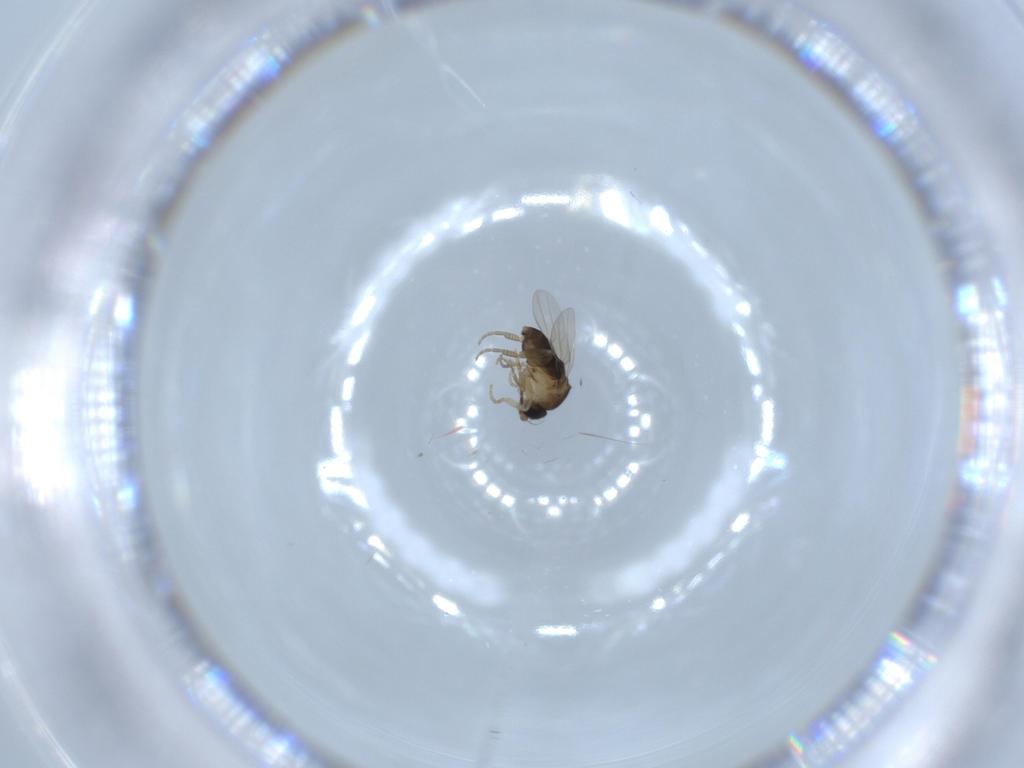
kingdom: Animalia
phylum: Arthropoda
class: Insecta
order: Diptera
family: Phoridae
